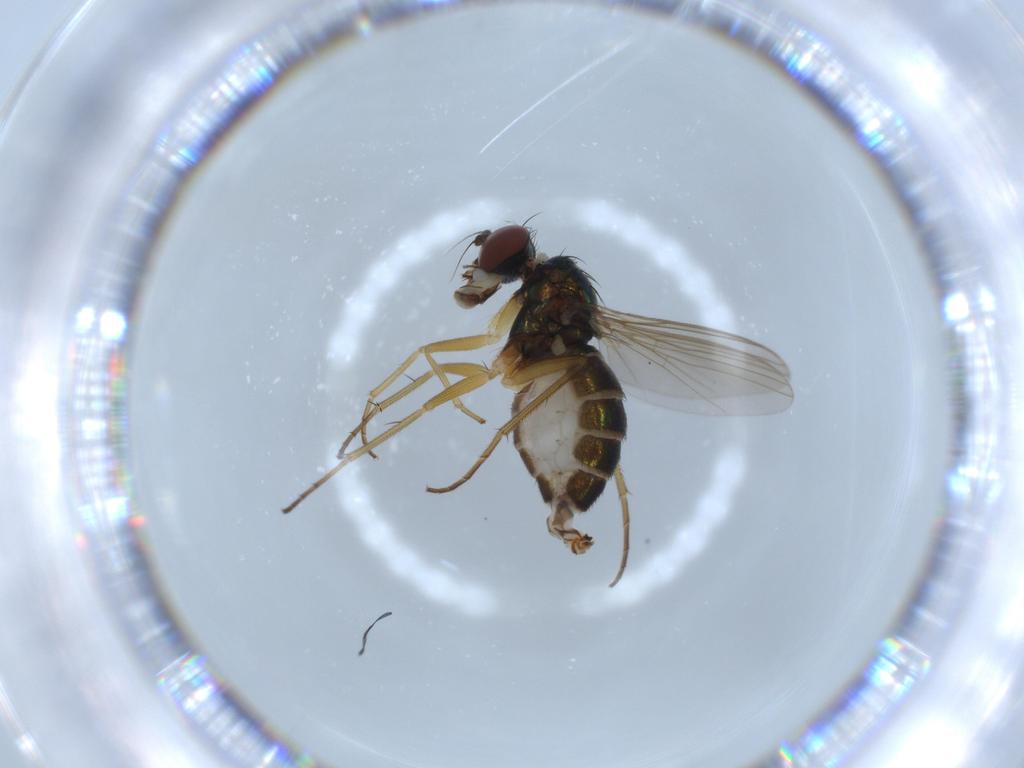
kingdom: Animalia
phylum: Arthropoda
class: Insecta
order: Diptera
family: Dolichopodidae
